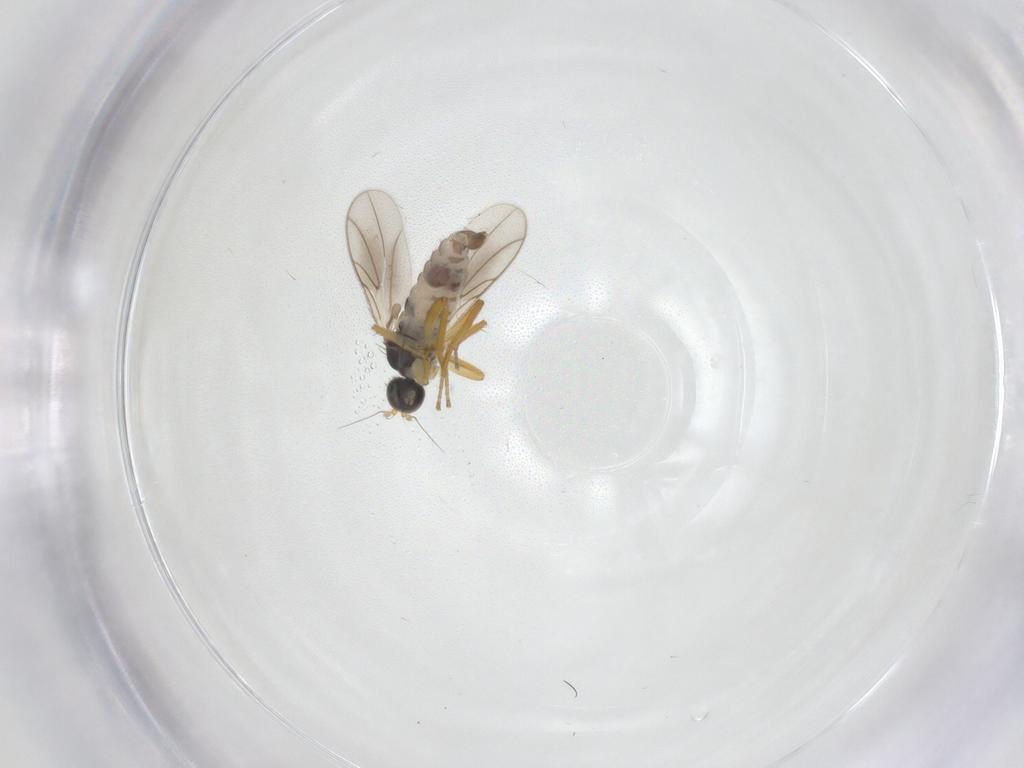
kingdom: Animalia
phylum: Arthropoda
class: Insecta
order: Diptera
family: Hybotidae
